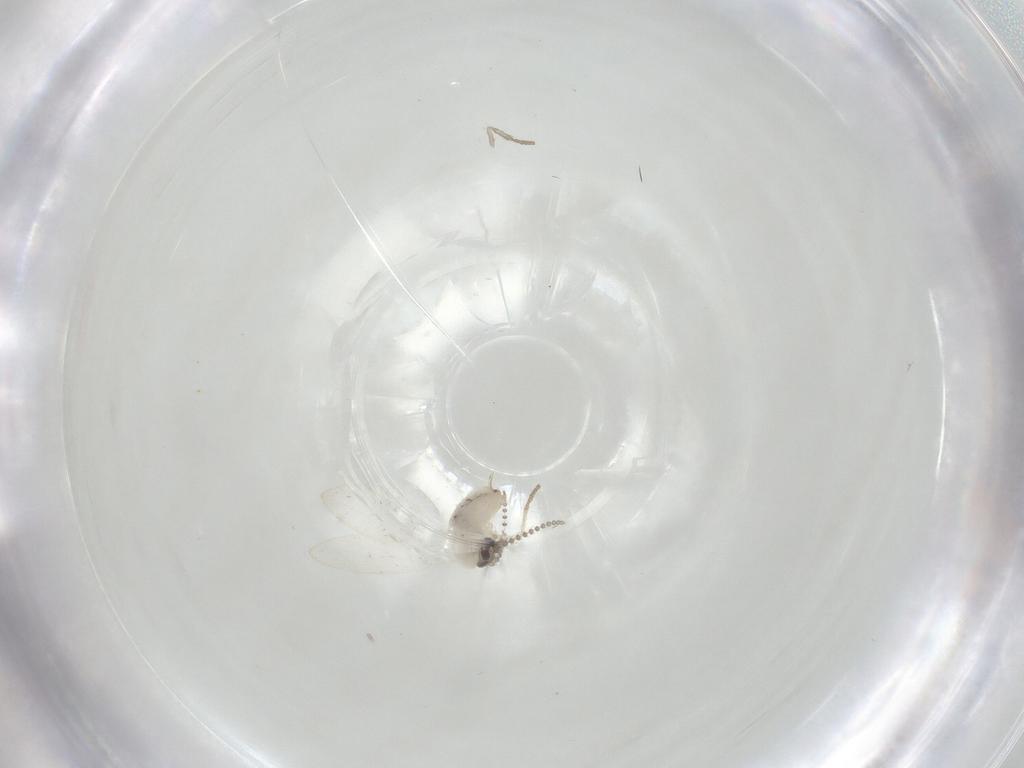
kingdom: Animalia
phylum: Arthropoda
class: Insecta
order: Diptera
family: Psychodidae
